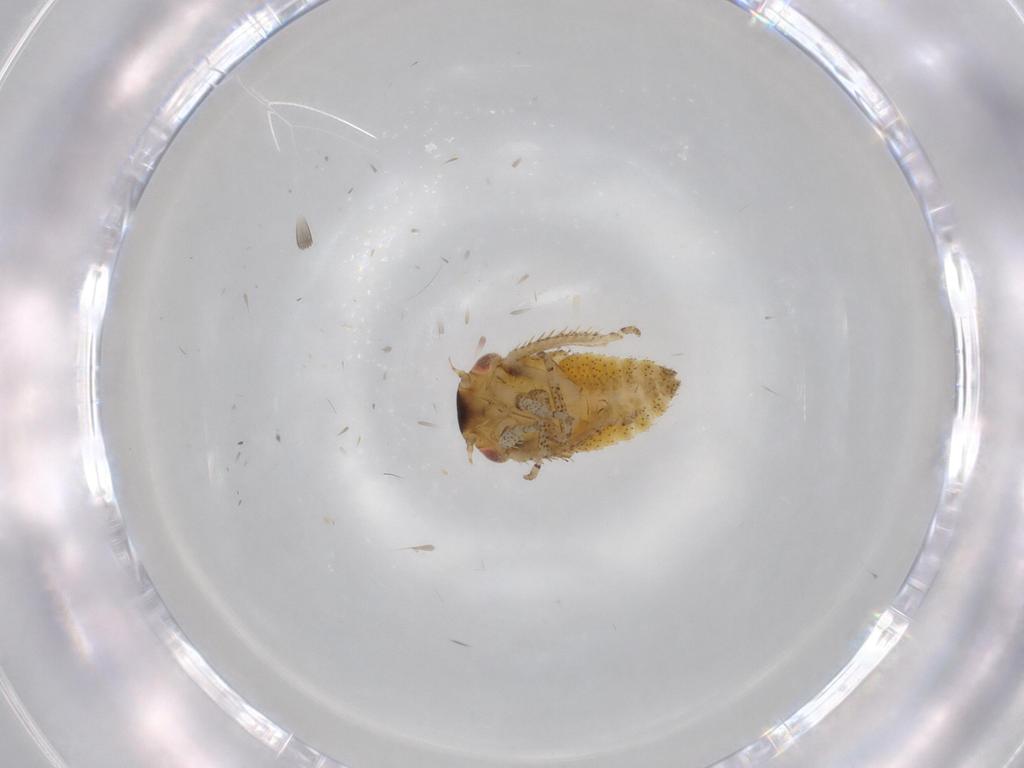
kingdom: Animalia
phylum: Arthropoda
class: Insecta
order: Hemiptera
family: Cicadellidae
